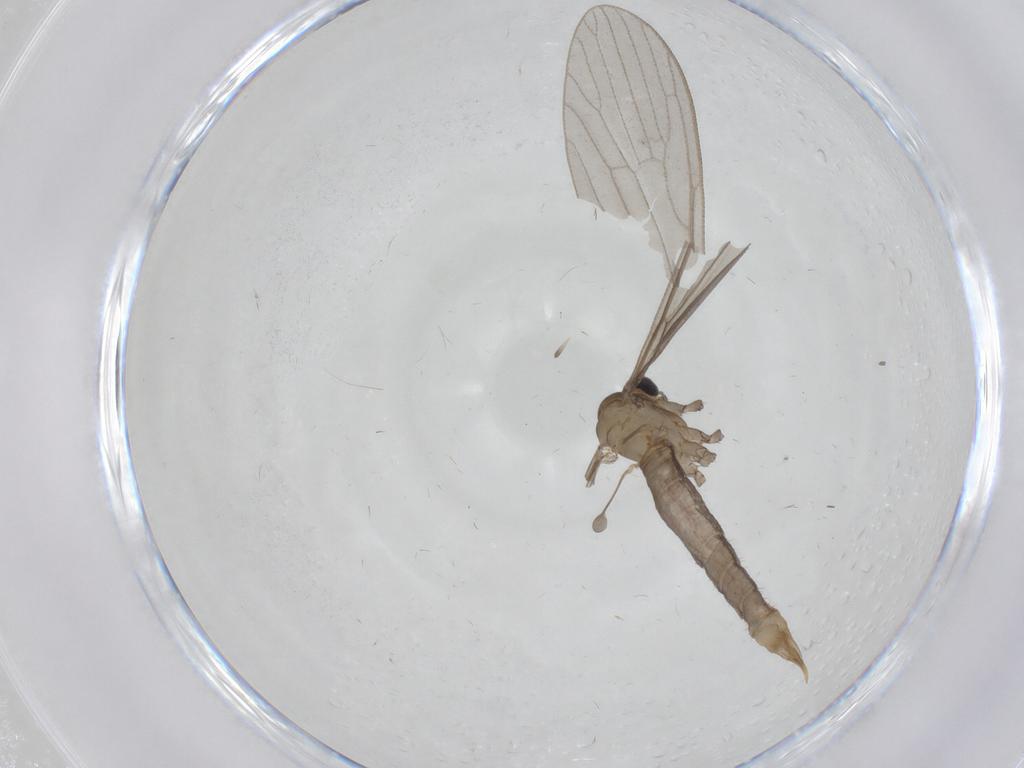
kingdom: Animalia
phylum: Arthropoda
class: Insecta
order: Diptera
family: Limoniidae
